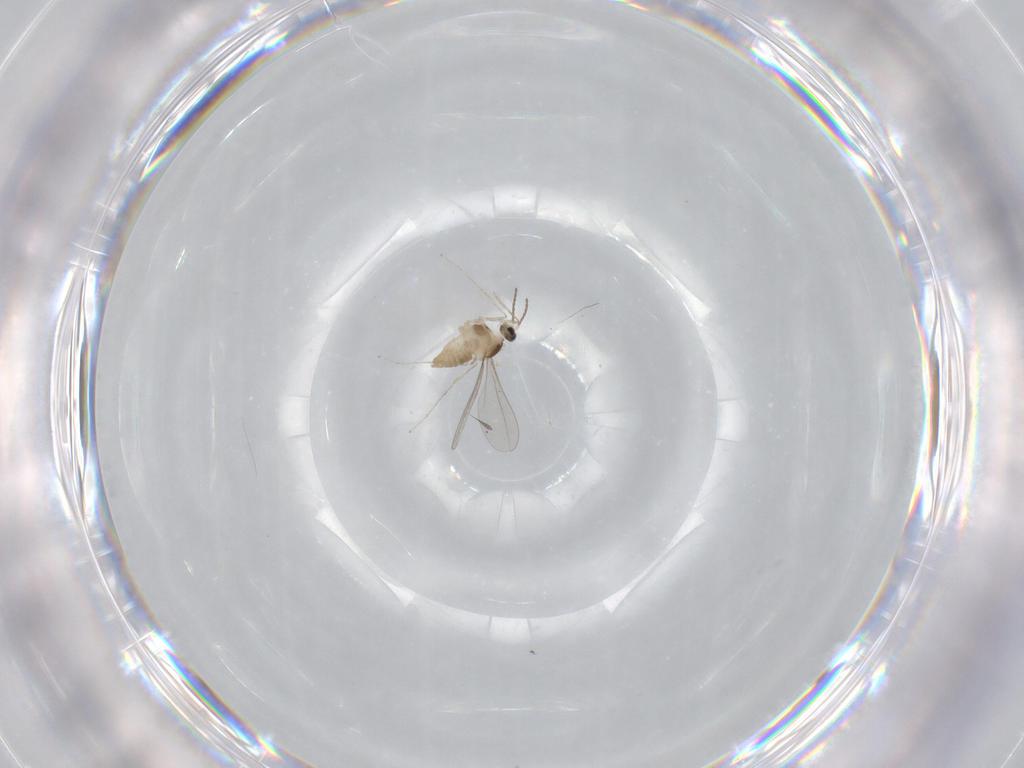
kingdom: Animalia
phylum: Arthropoda
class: Insecta
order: Diptera
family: Cecidomyiidae
